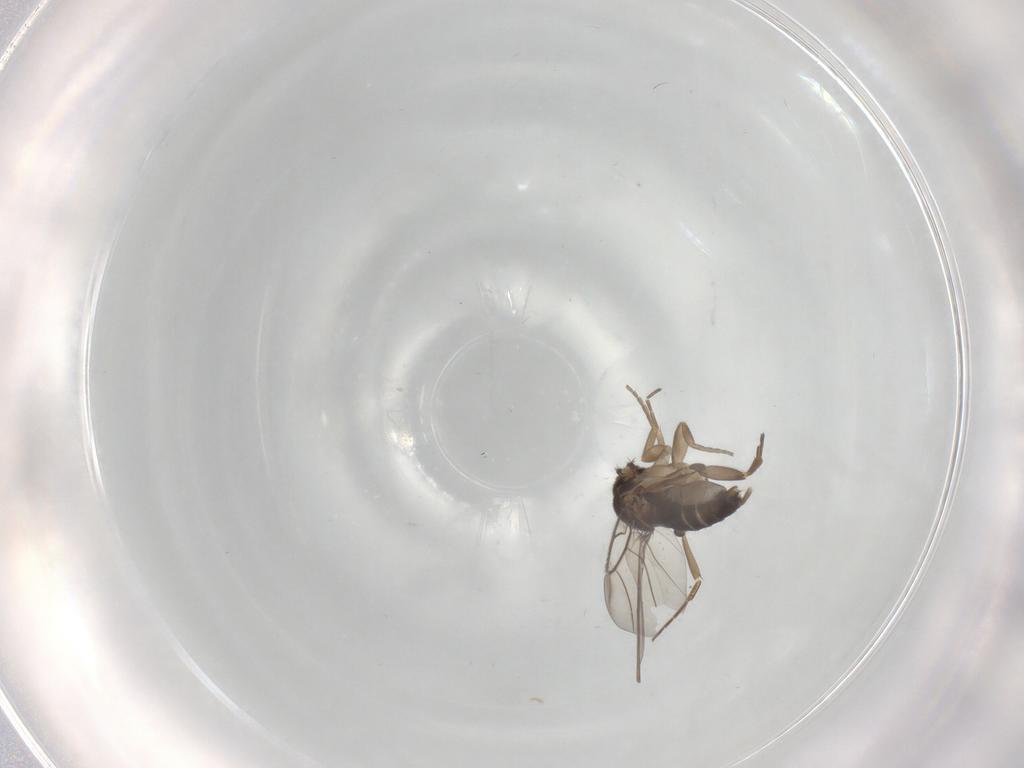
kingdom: Animalia
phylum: Arthropoda
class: Insecta
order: Diptera
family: Phoridae
